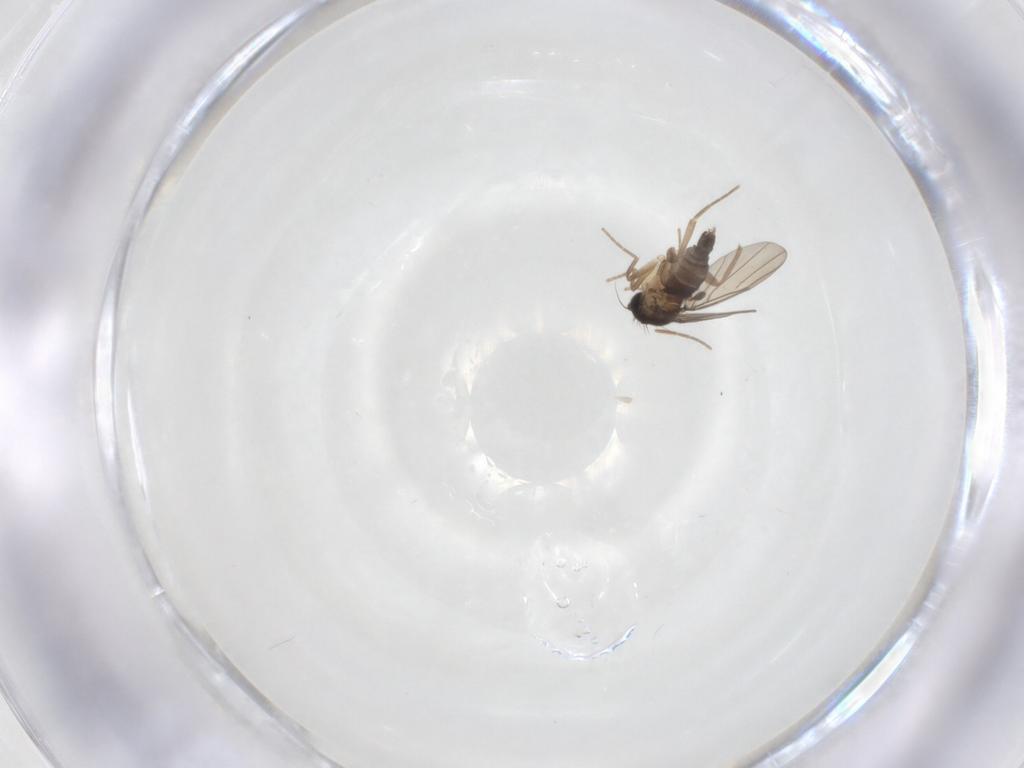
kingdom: Animalia
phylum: Arthropoda
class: Insecta
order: Diptera
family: Phoridae
